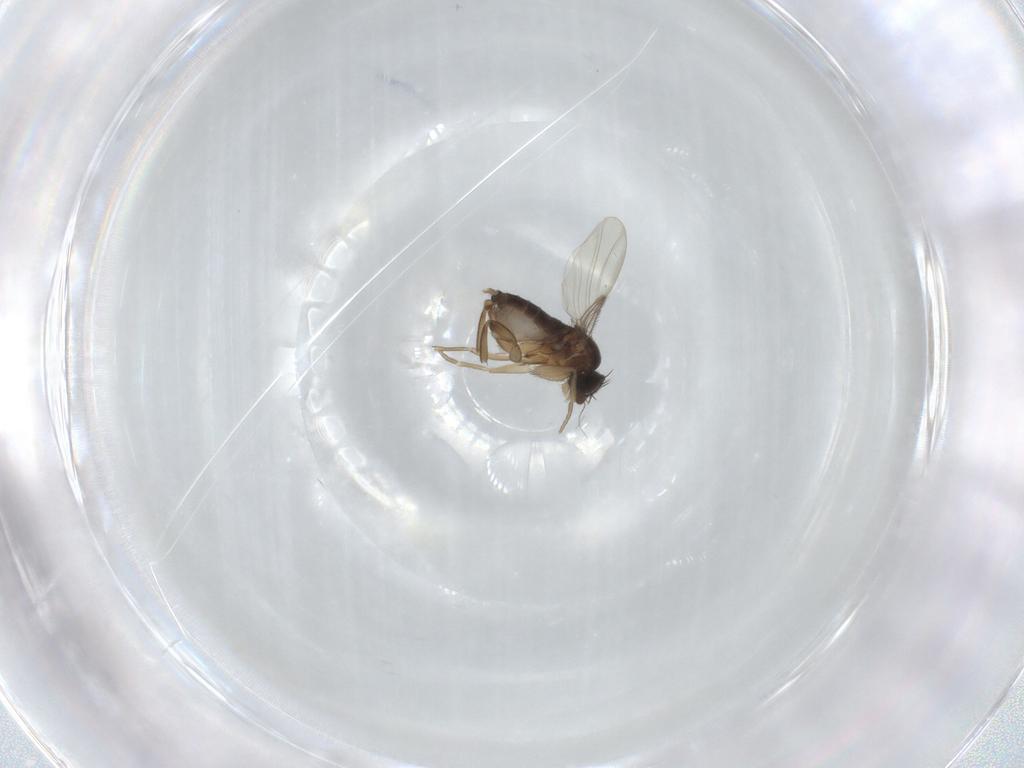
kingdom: Animalia
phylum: Arthropoda
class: Insecta
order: Diptera
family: Phoridae
